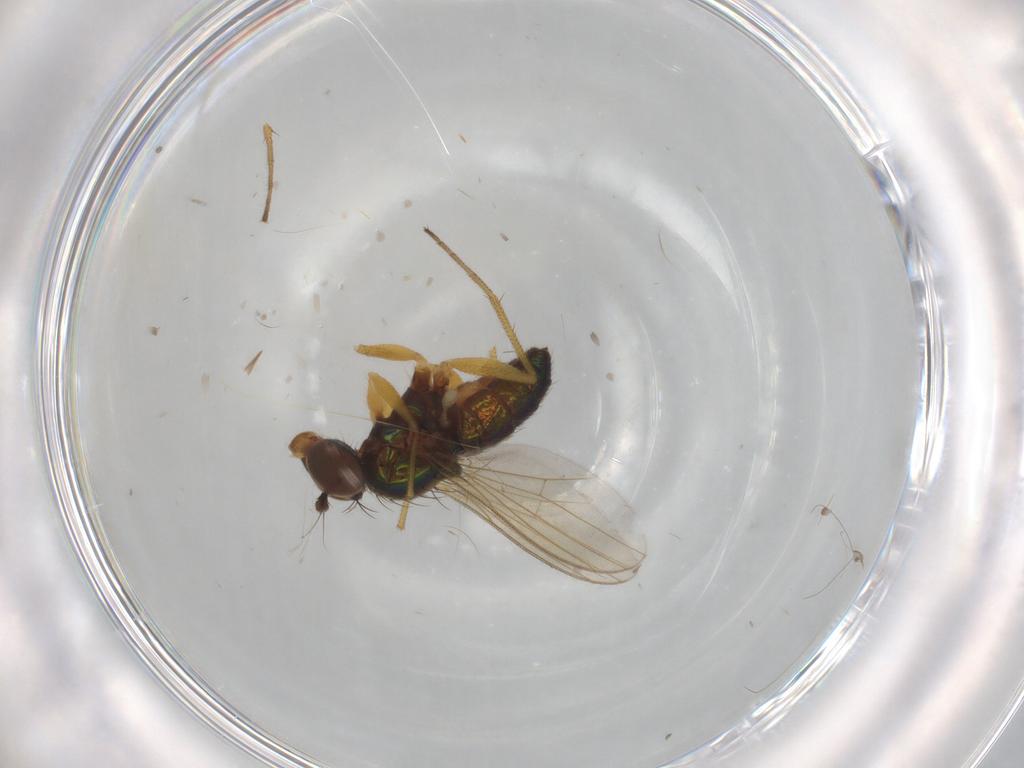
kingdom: Animalia
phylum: Arthropoda
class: Insecta
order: Diptera
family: Dolichopodidae
